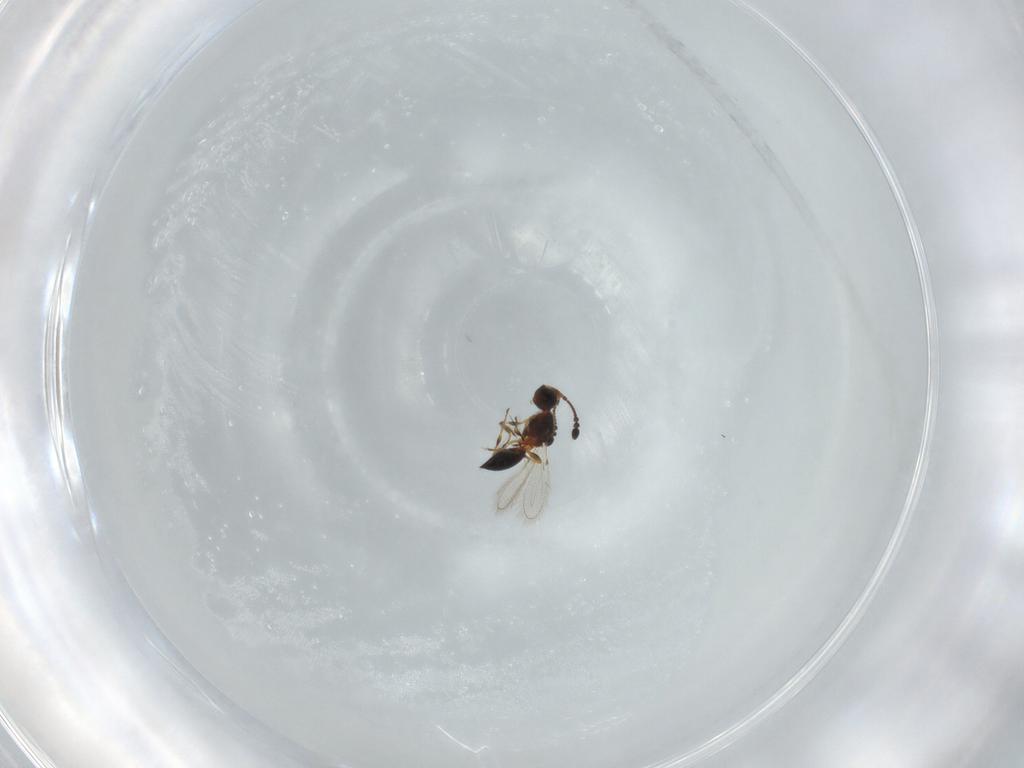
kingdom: Animalia
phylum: Arthropoda
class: Insecta
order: Hymenoptera
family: Diapriidae
